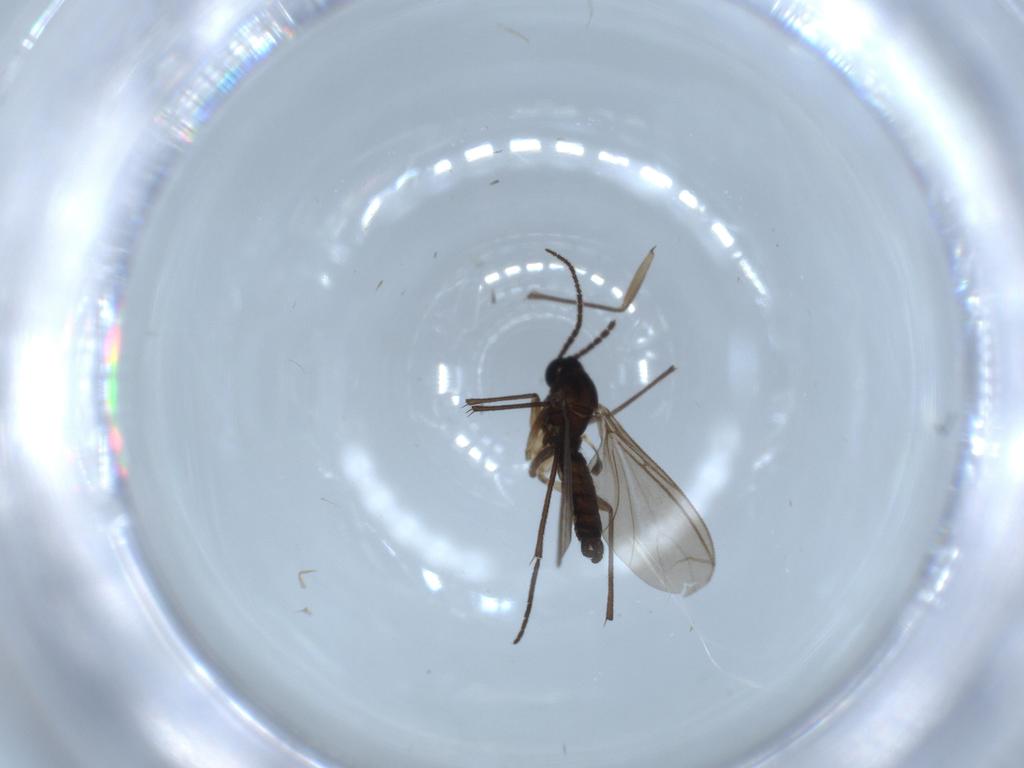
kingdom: Animalia
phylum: Arthropoda
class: Insecta
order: Diptera
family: Sciaridae
